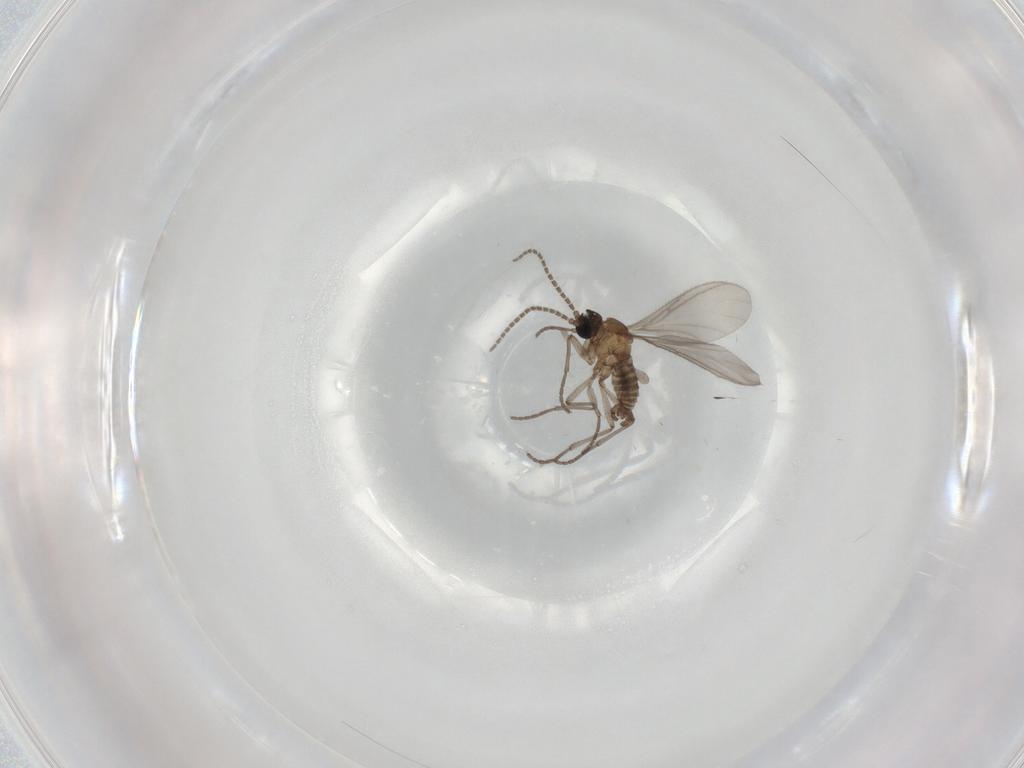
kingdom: Animalia
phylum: Arthropoda
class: Insecta
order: Diptera
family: Sciaridae
